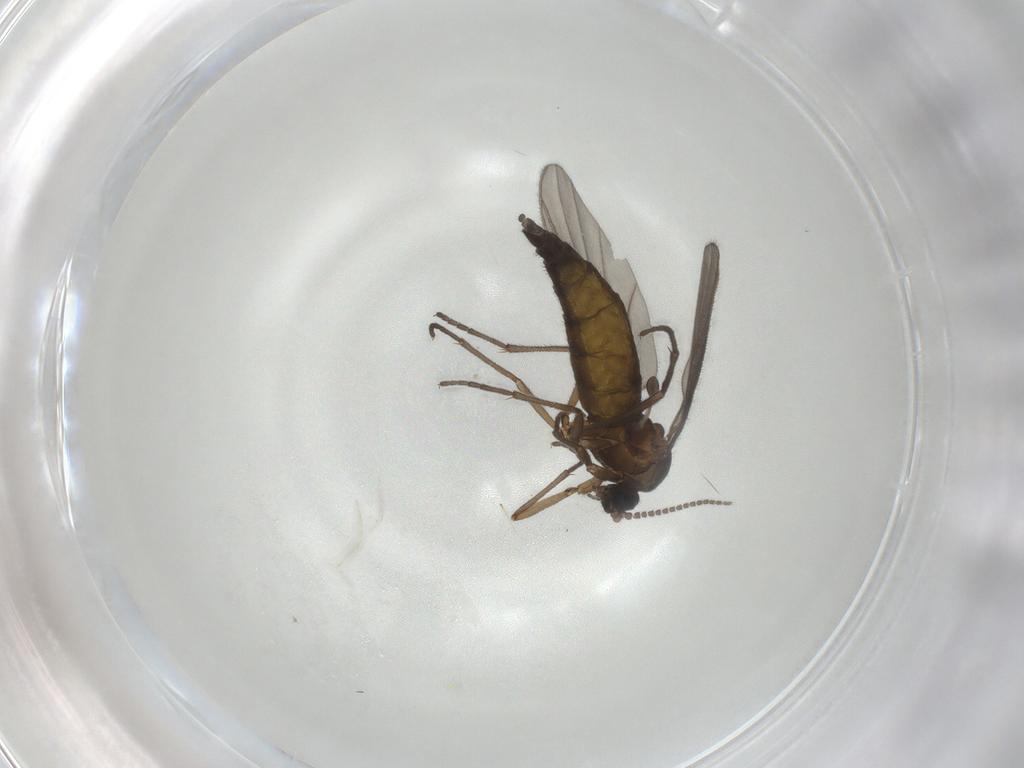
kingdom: Animalia
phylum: Arthropoda
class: Insecta
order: Diptera
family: Sciaridae
